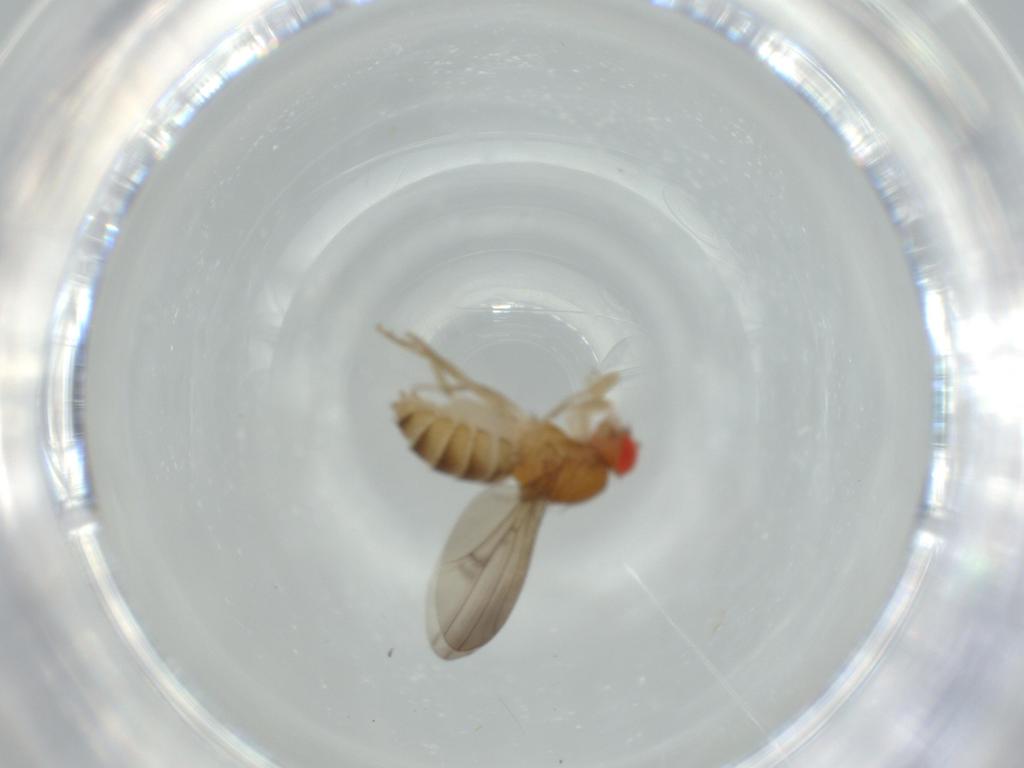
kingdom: Animalia
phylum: Arthropoda
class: Insecta
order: Diptera
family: Drosophilidae
